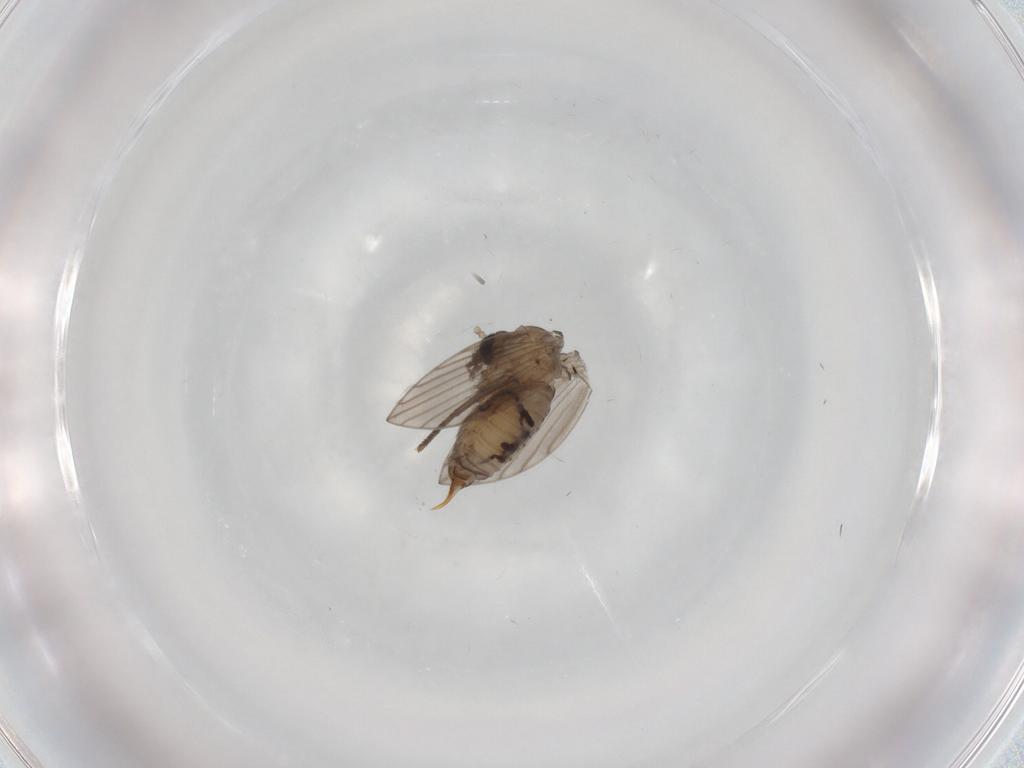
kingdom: Animalia
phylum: Arthropoda
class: Insecta
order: Diptera
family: Psychodidae
